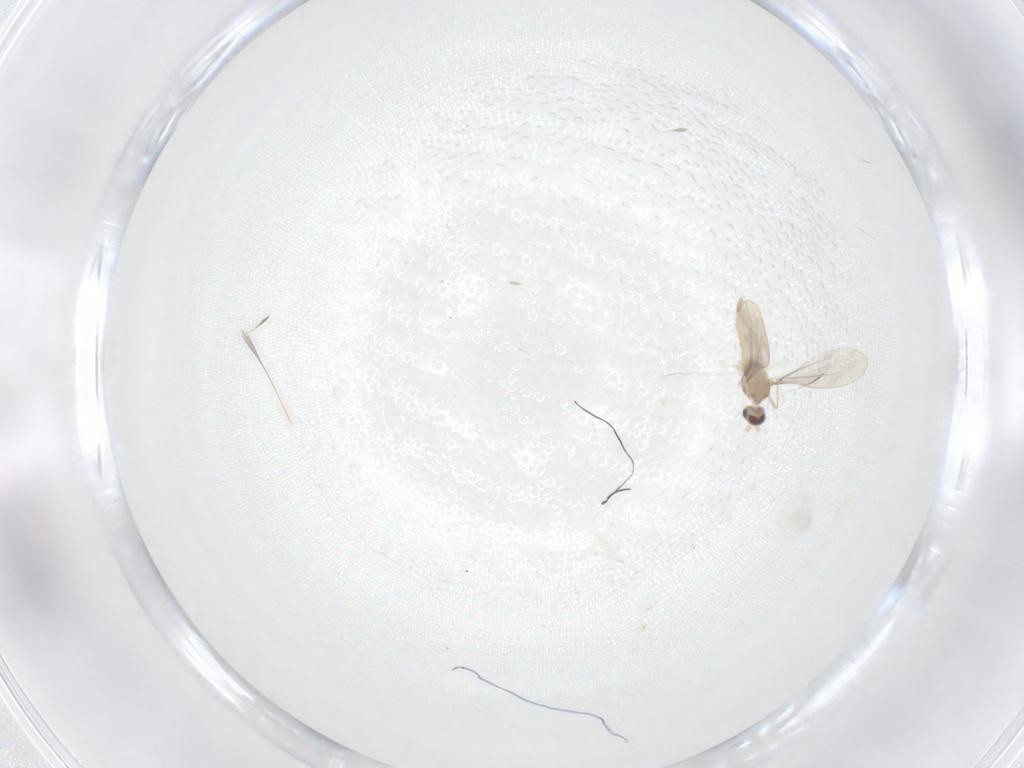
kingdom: Animalia
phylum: Arthropoda
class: Insecta
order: Diptera
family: Cecidomyiidae
